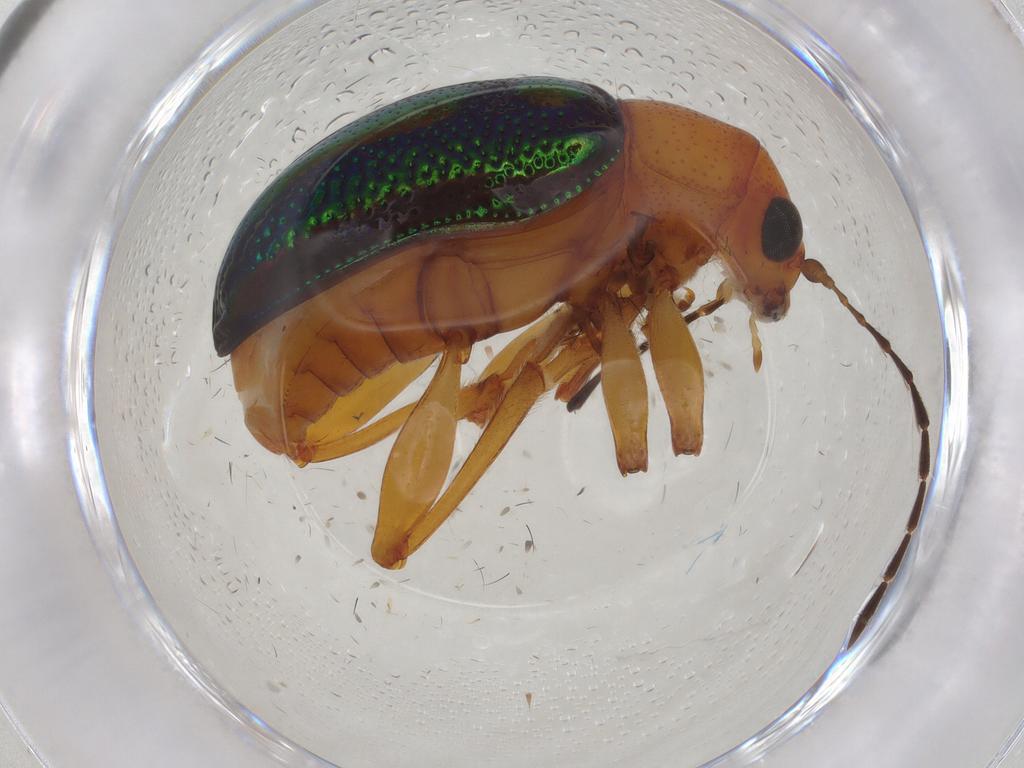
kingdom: Animalia
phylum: Arthropoda
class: Insecta
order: Coleoptera
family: Chrysomelidae
